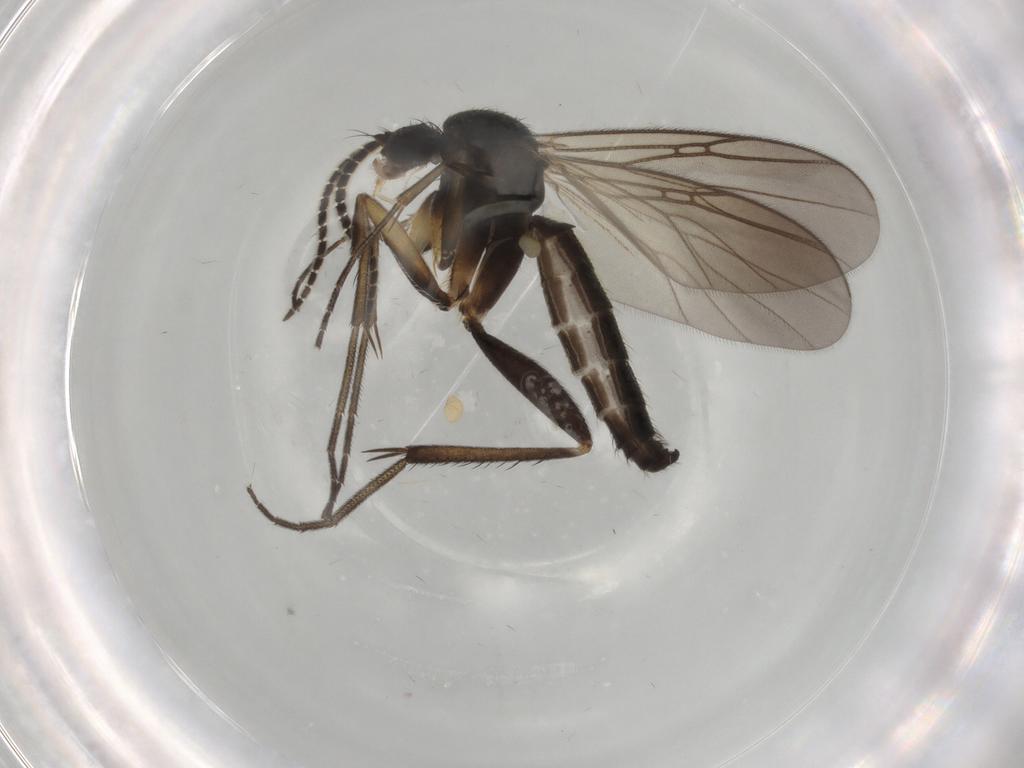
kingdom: Animalia
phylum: Arthropoda
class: Insecta
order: Diptera
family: Mycetophilidae
